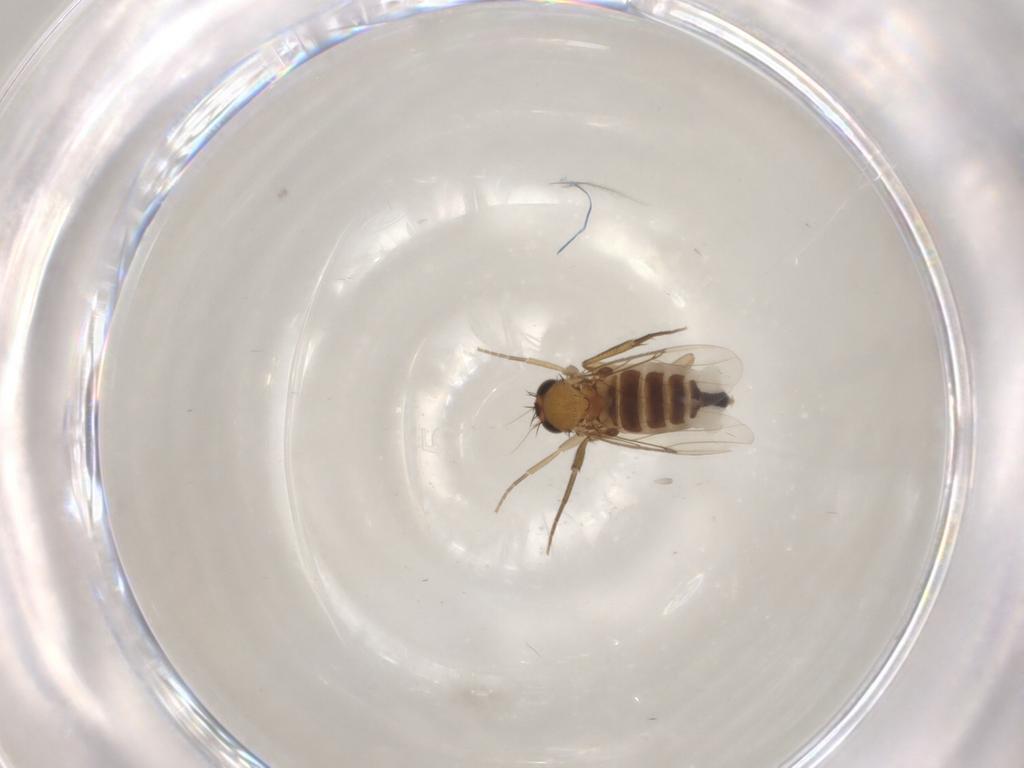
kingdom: Animalia
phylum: Arthropoda
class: Insecta
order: Diptera
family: Phoridae
